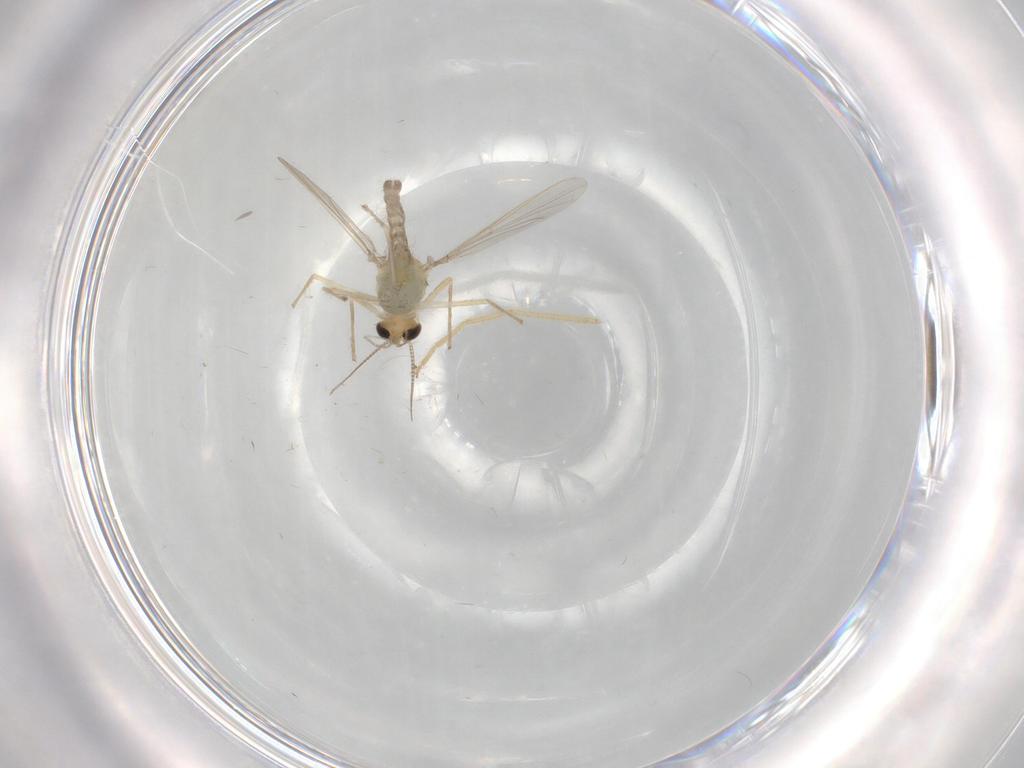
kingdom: Animalia
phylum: Arthropoda
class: Insecta
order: Diptera
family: Chironomidae
